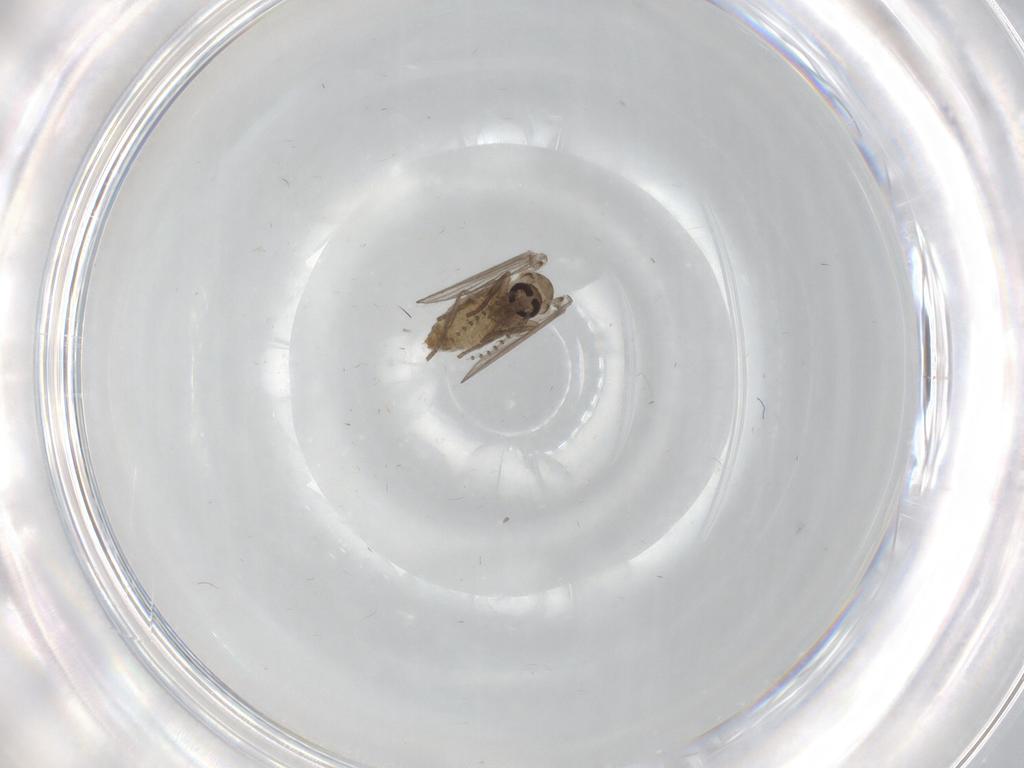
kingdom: Animalia
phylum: Arthropoda
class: Insecta
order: Diptera
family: Psychodidae
